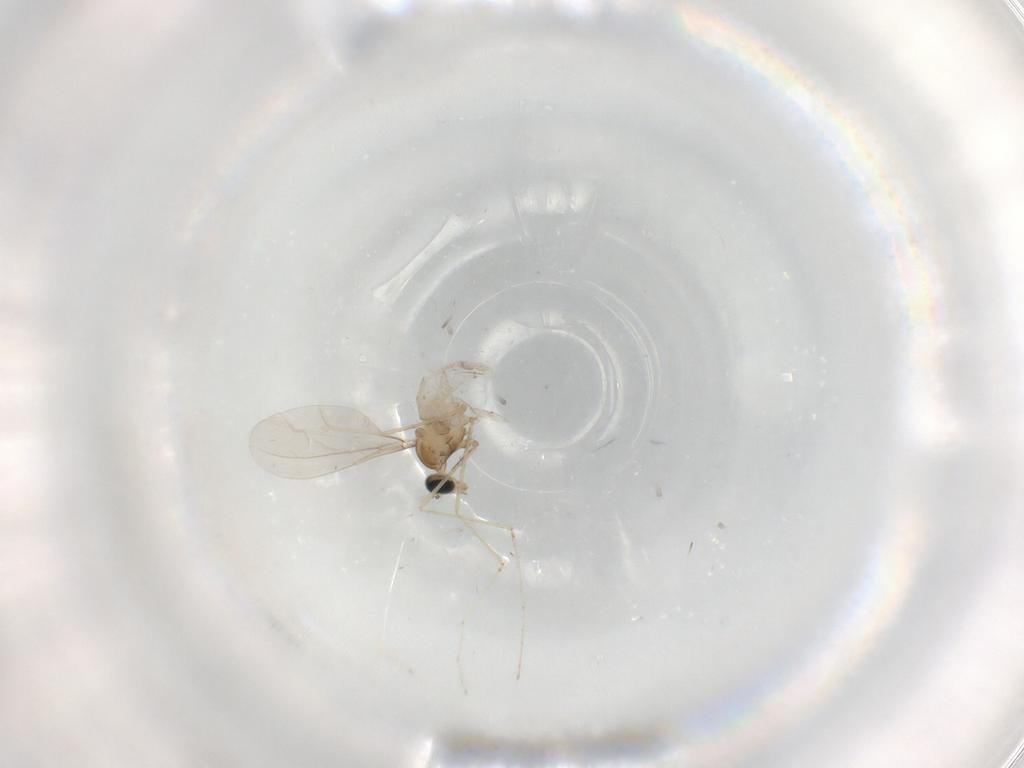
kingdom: Animalia
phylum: Arthropoda
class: Insecta
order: Diptera
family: Cecidomyiidae
